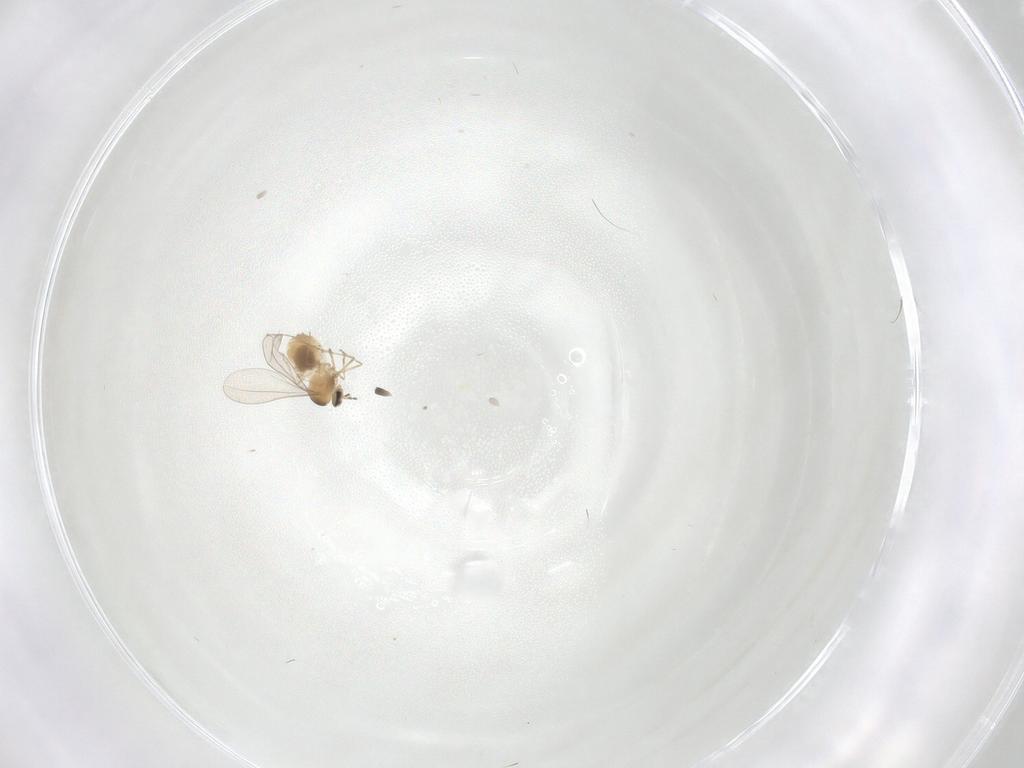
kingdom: Animalia
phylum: Arthropoda
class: Insecta
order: Diptera
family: Cecidomyiidae
